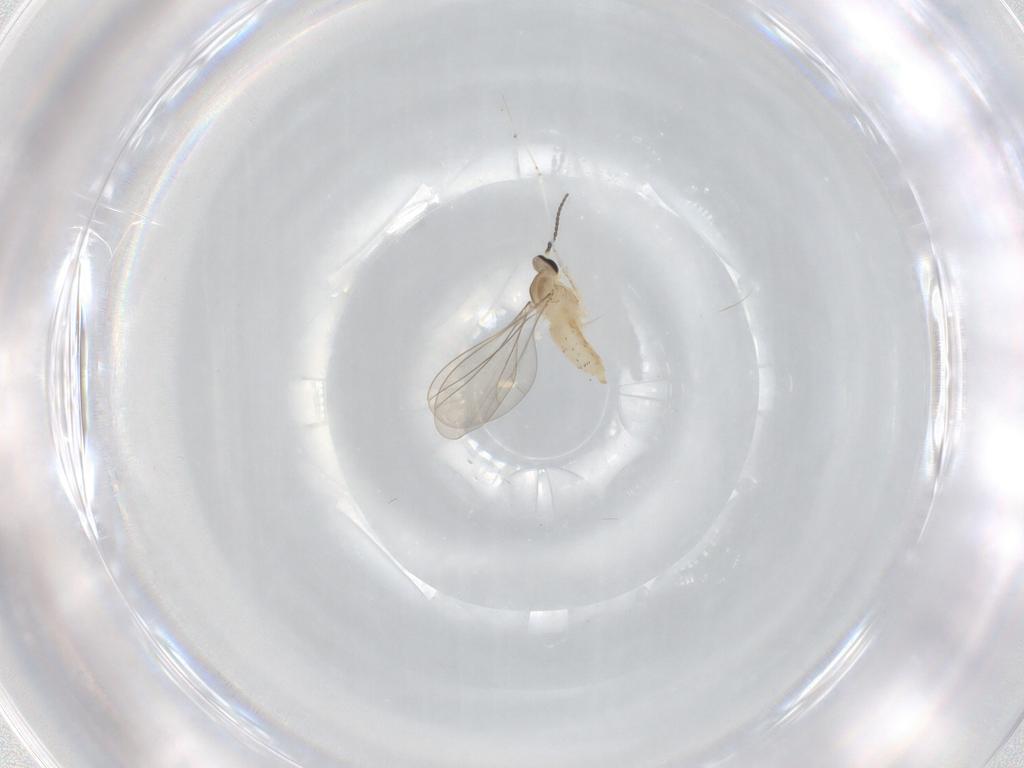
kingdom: Animalia
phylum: Arthropoda
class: Insecta
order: Diptera
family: Cecidomyiidae
